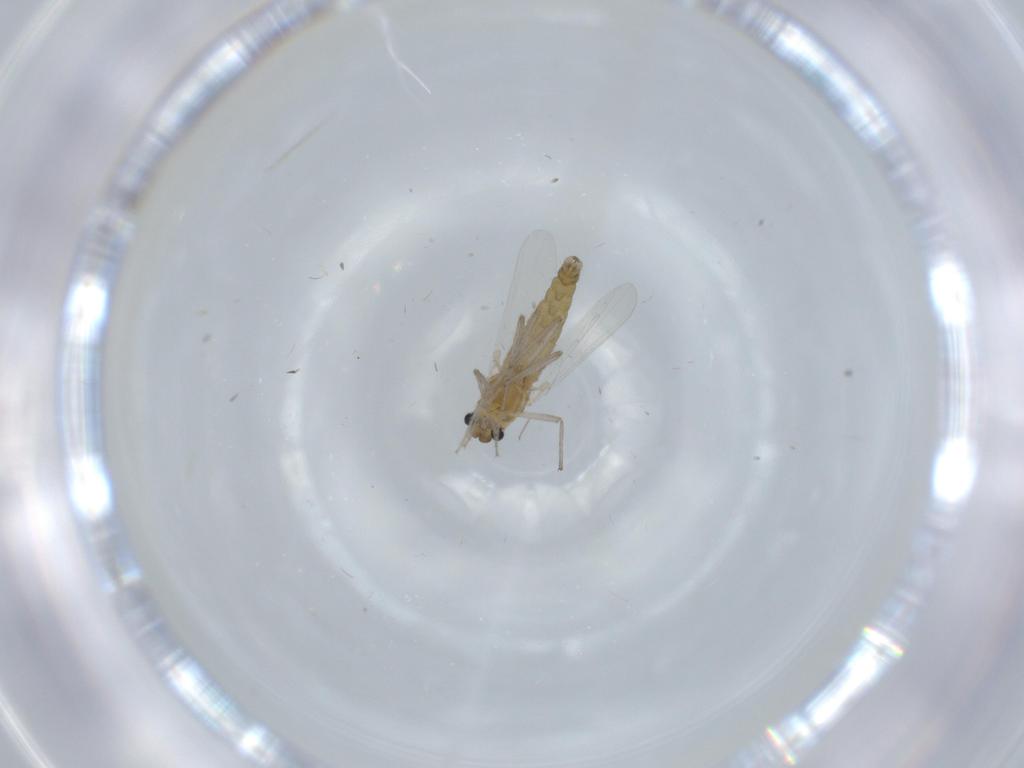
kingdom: Animalia
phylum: Arthropoda
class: Insecta
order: Diptera
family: Chironomidae
